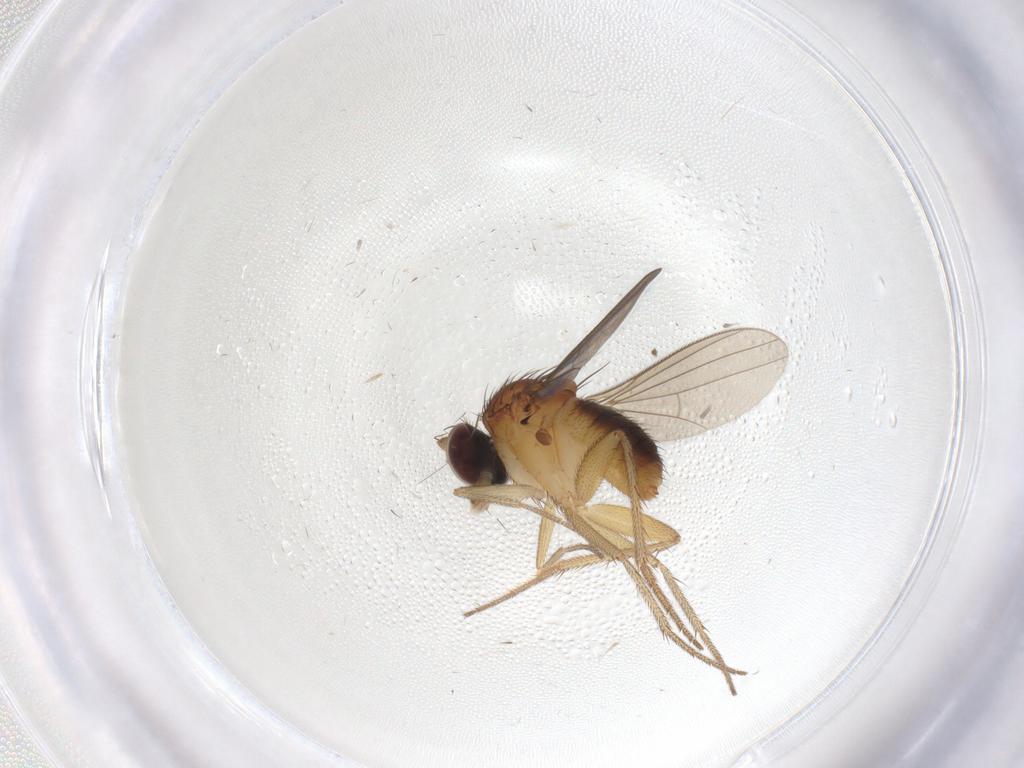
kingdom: Animalia
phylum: Arthropoda
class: Insecta
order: Diptera
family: Dolichopodidae
